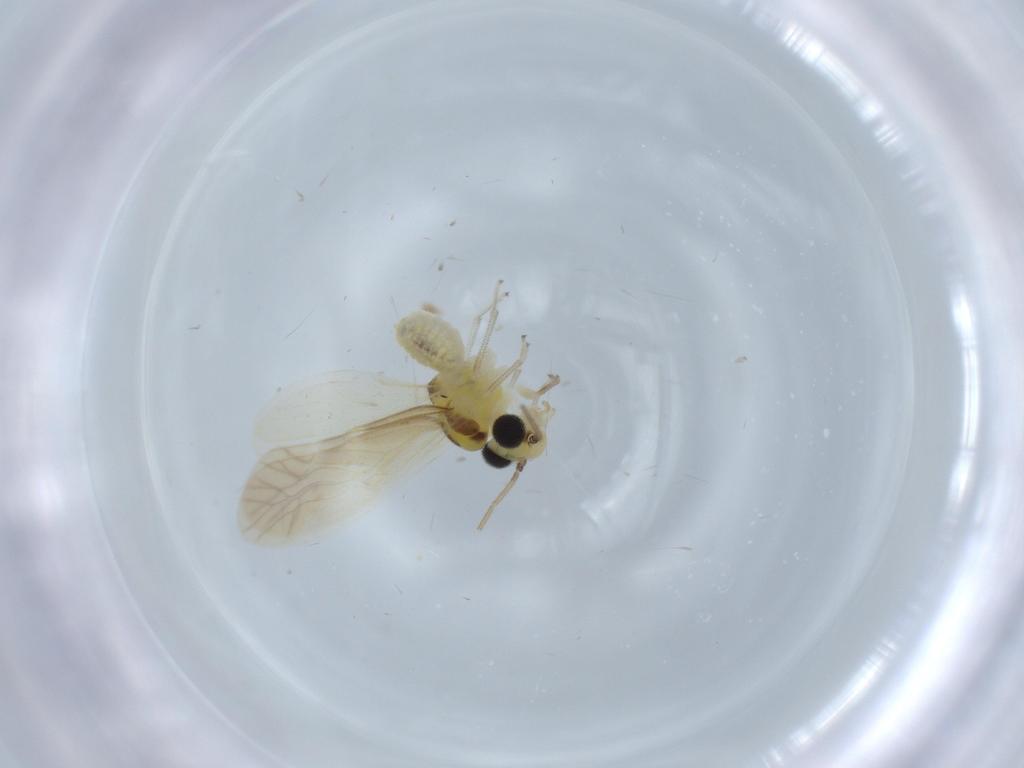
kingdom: Animalia
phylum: Arthropoda
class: Insecta
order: Psocodea
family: Caeciliusidae
